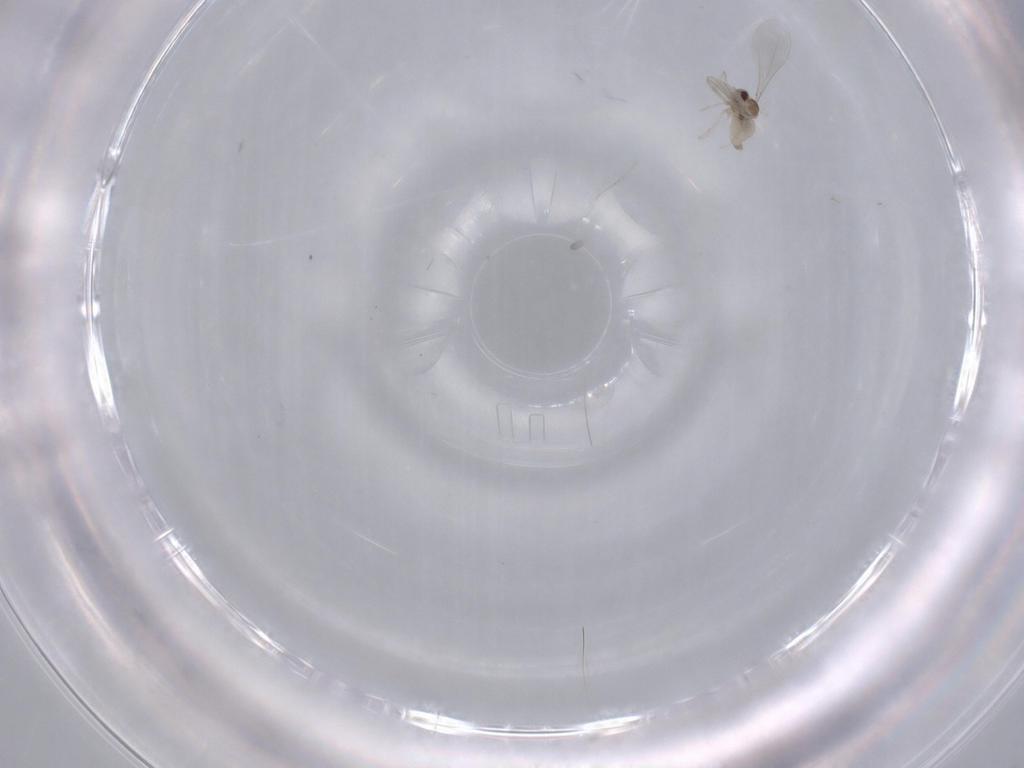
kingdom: Animalia
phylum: Arthropoda
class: Insecta
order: Diptera
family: Cecidomyiidae
